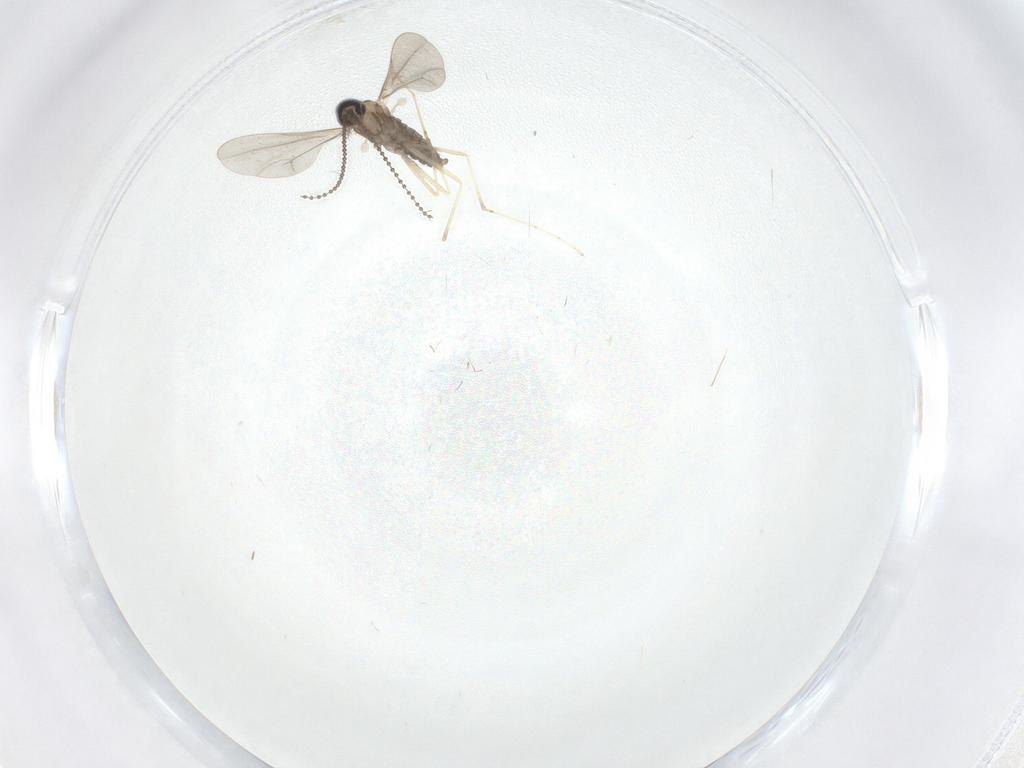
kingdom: Animalia
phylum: Arthropoda
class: Insecta
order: Diptera
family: Cecidomyiidae
